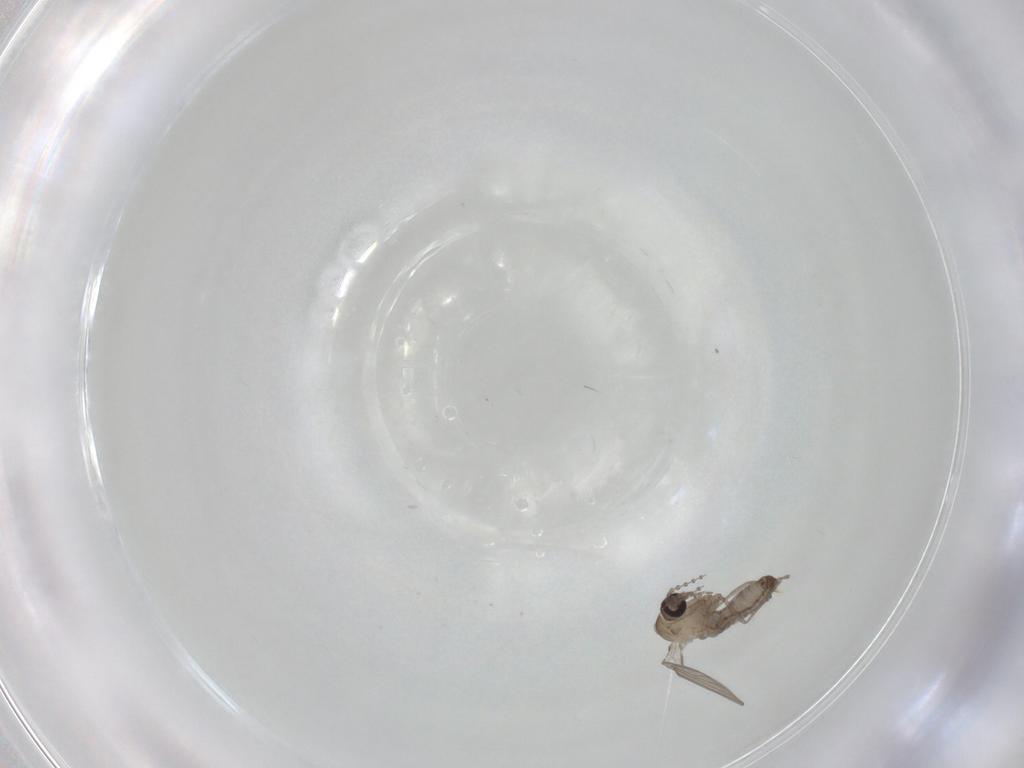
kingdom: Animalia
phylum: Arthropoda
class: Insecta
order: Diptera
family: Psychodidae
